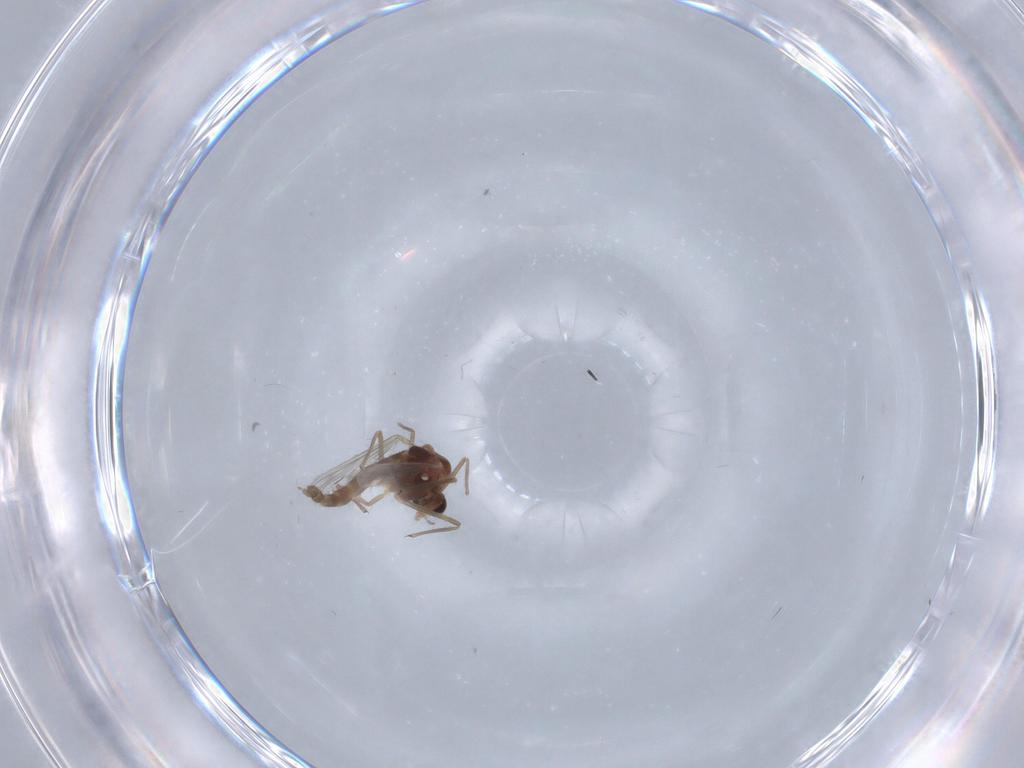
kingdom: Animalia
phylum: Arthropoda
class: Insecta
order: Diptera
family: Chironomidae
